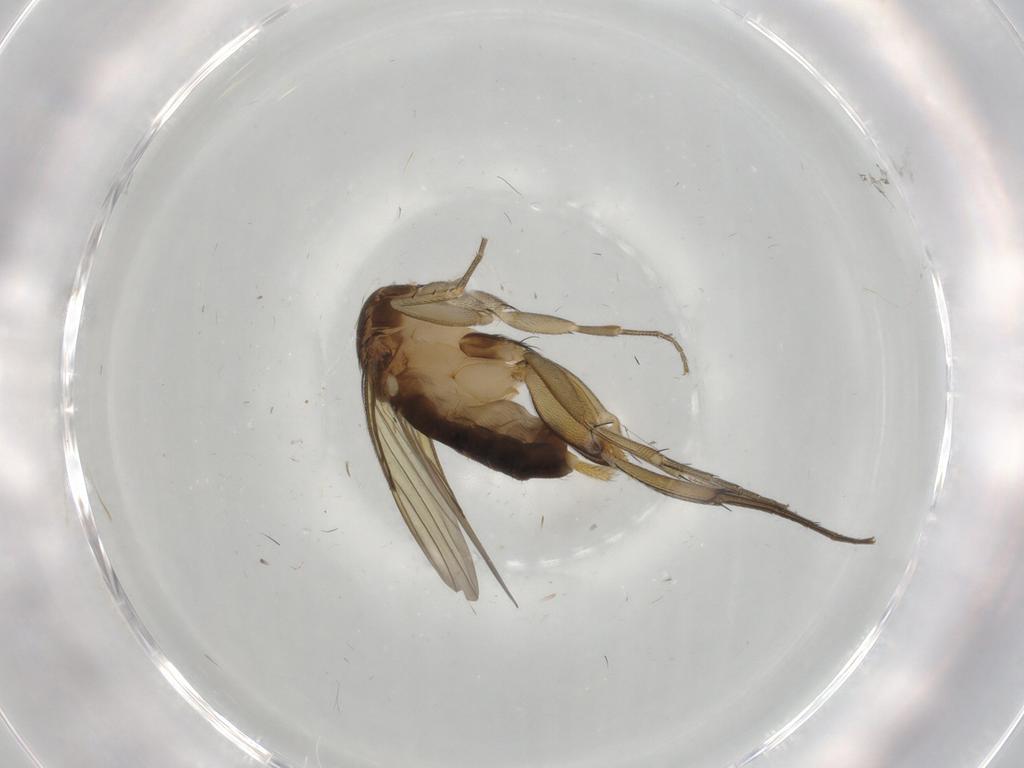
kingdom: Animalia
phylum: Arthropoda
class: Insecta
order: Diptera
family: Phoridae
